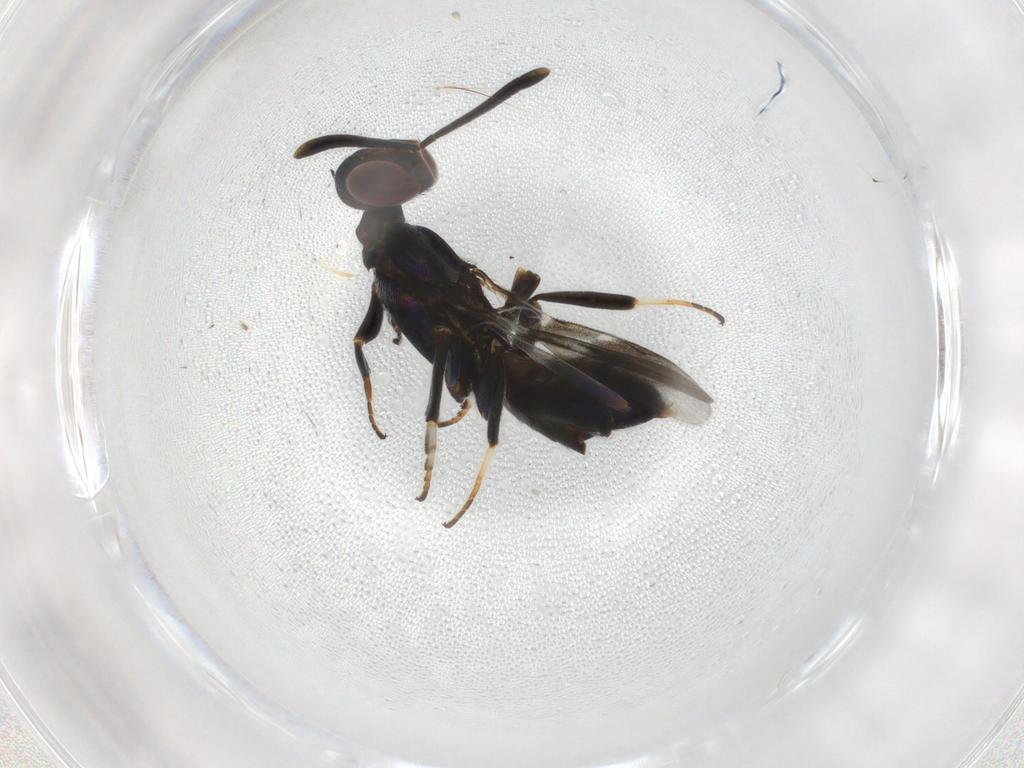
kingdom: Animalia
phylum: Arthropoda
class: Insecta
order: Hymenoptera
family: Eupelmidae
